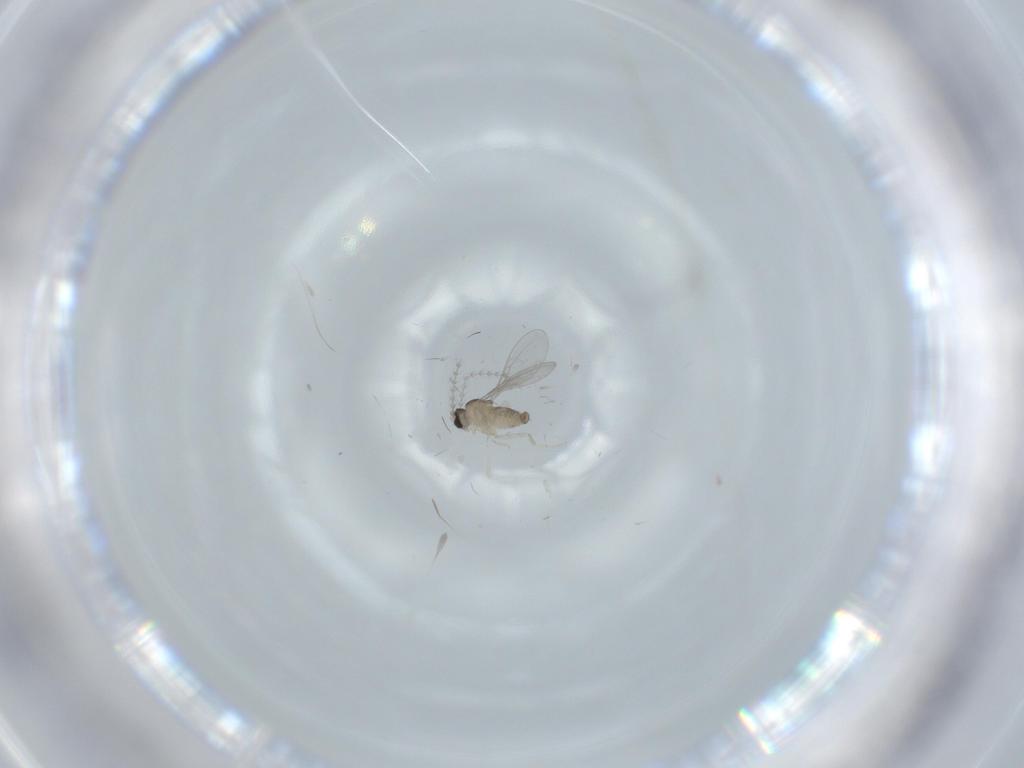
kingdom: Animalia
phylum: Arthropoda
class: Insecta
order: Diptera
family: Cecidomyiidae
